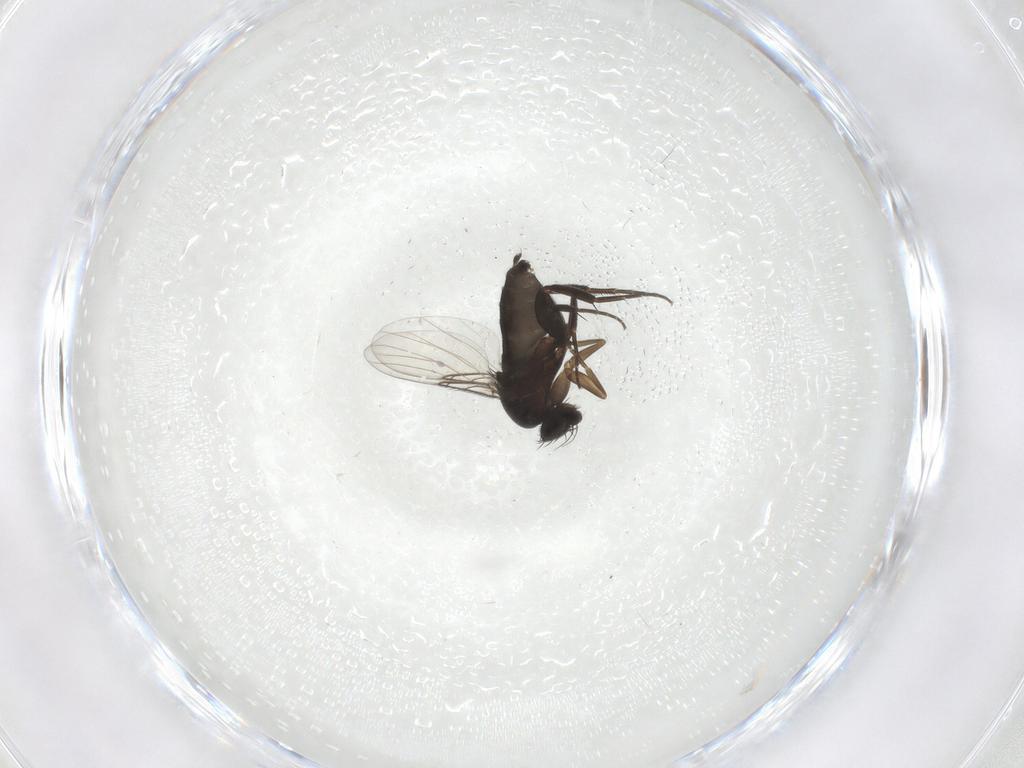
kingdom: Animalia
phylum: Arthropoda
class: Insecta
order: Diptera
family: Phoridae
